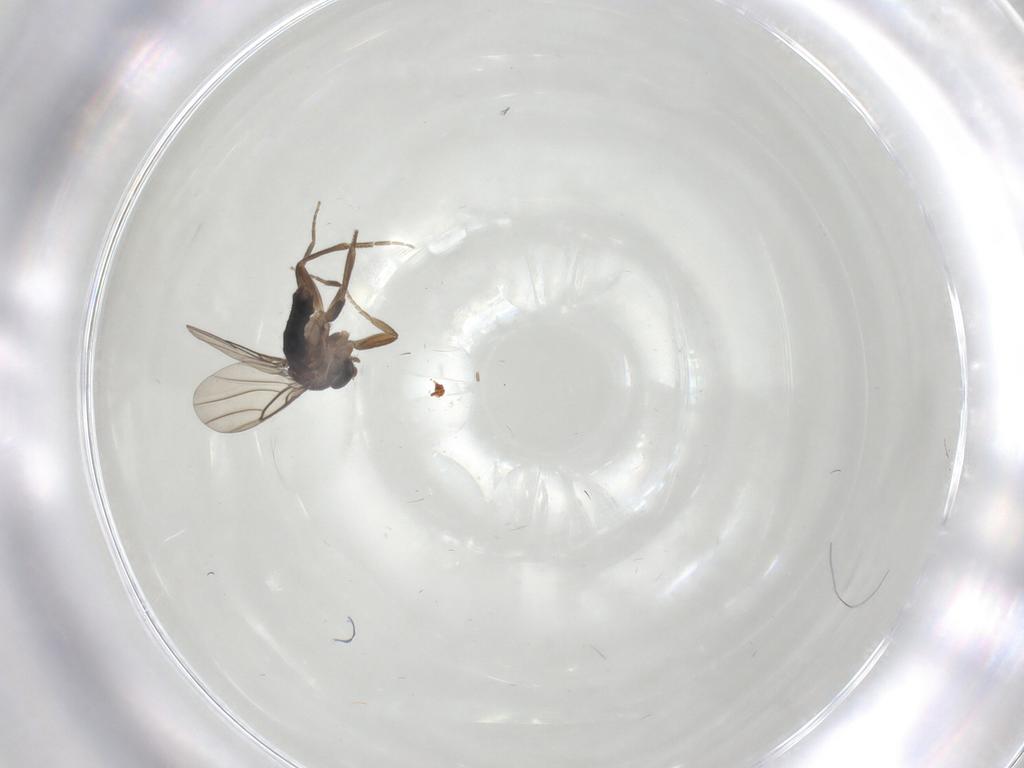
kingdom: Animalia
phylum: Arthropoda
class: Insecta
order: Diptera
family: Phoridae
